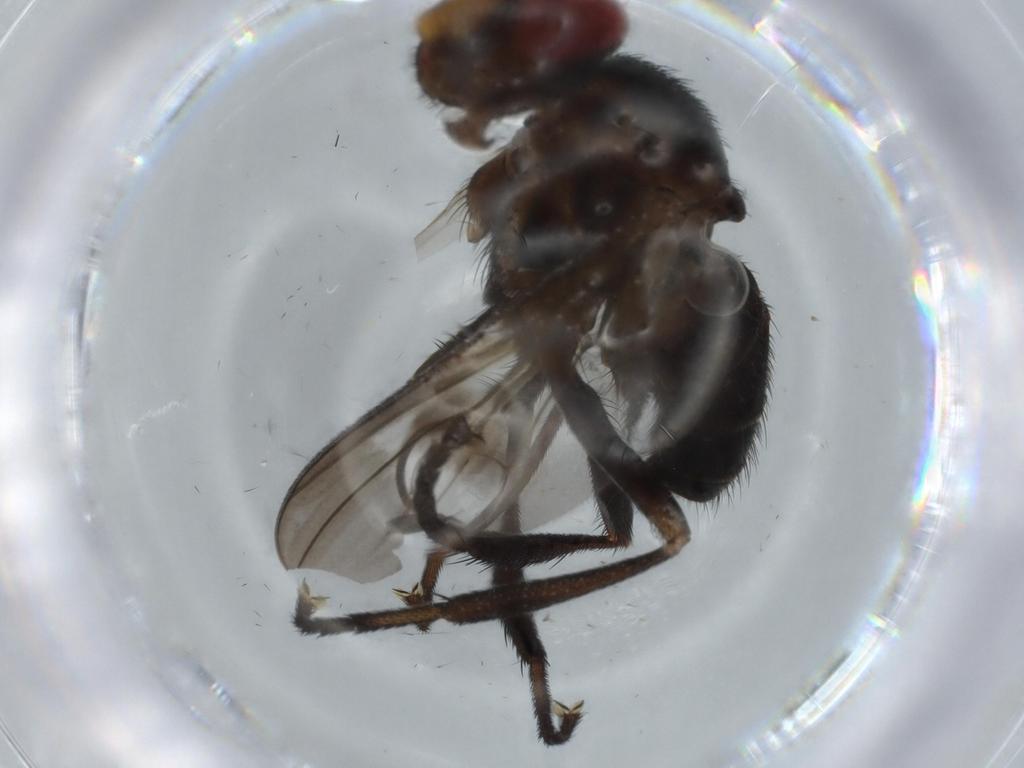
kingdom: Animalia
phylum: Arthropoda
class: Insecta
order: Diptera
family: Calliphoridae
